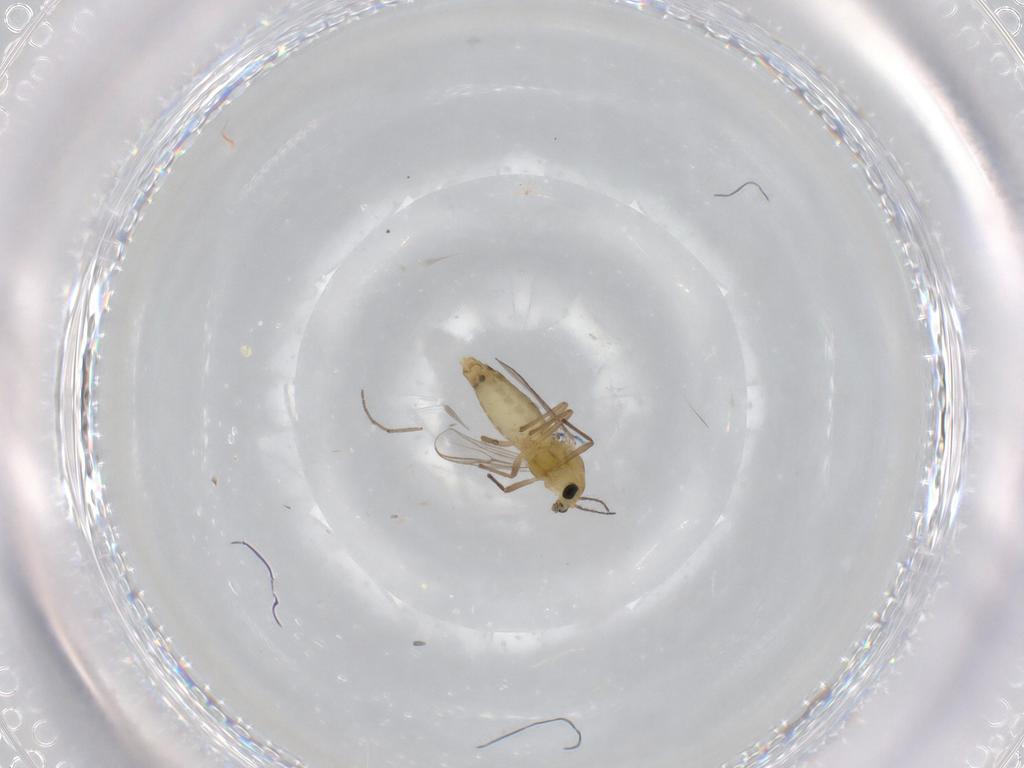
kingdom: Animalia
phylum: Arthropoda
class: Insecta
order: Diptera
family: Chironomidae
